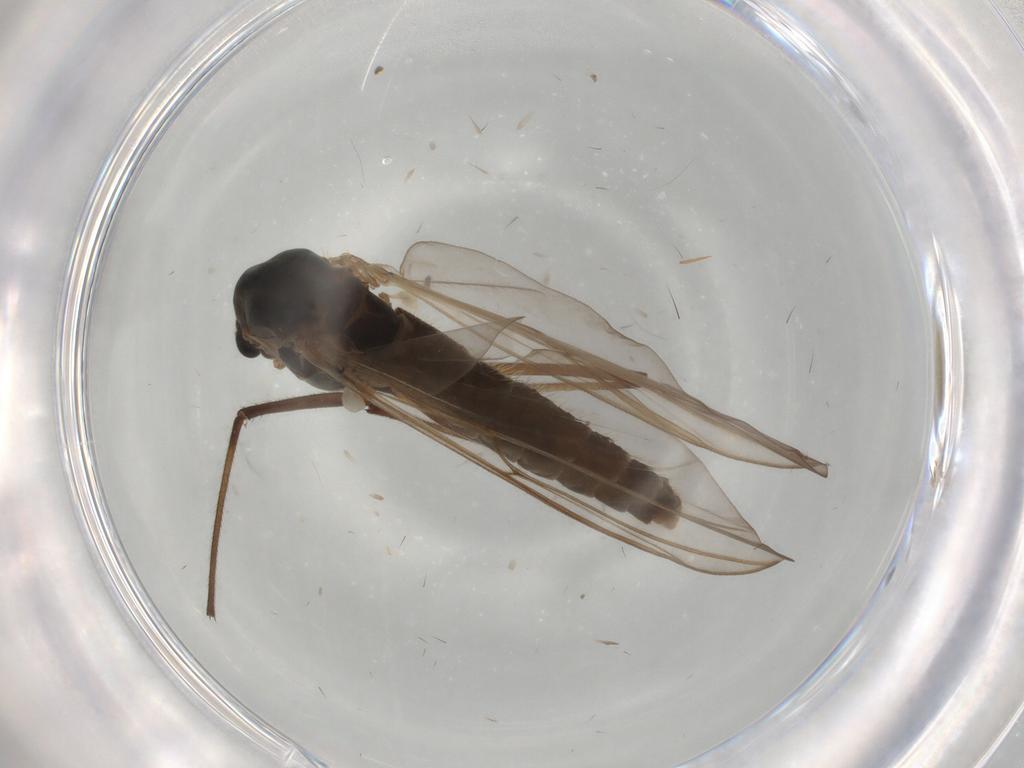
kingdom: Animalia
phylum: Arthropoda
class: Insecta
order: Diptera
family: Chironomidae
